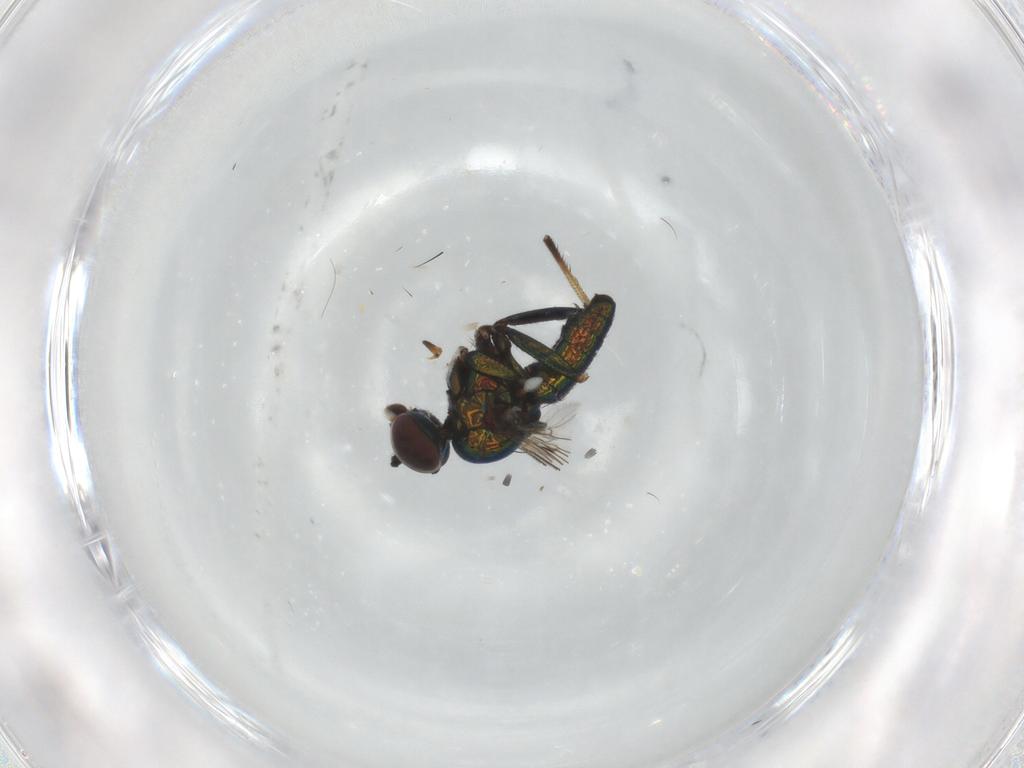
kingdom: Animalia
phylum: Arthropoda
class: Insecta
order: Diptera
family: Dolichopodidae
